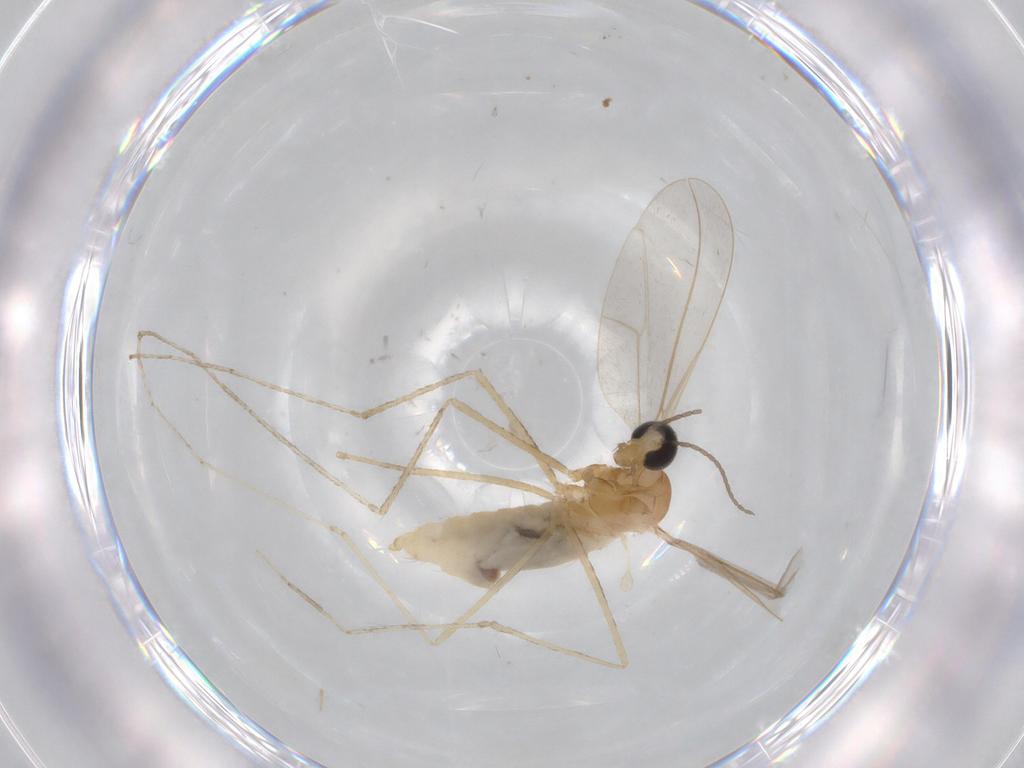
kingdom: Animalia
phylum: Arthropoda
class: Insecta
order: Diptera
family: Cecidomyiidae
